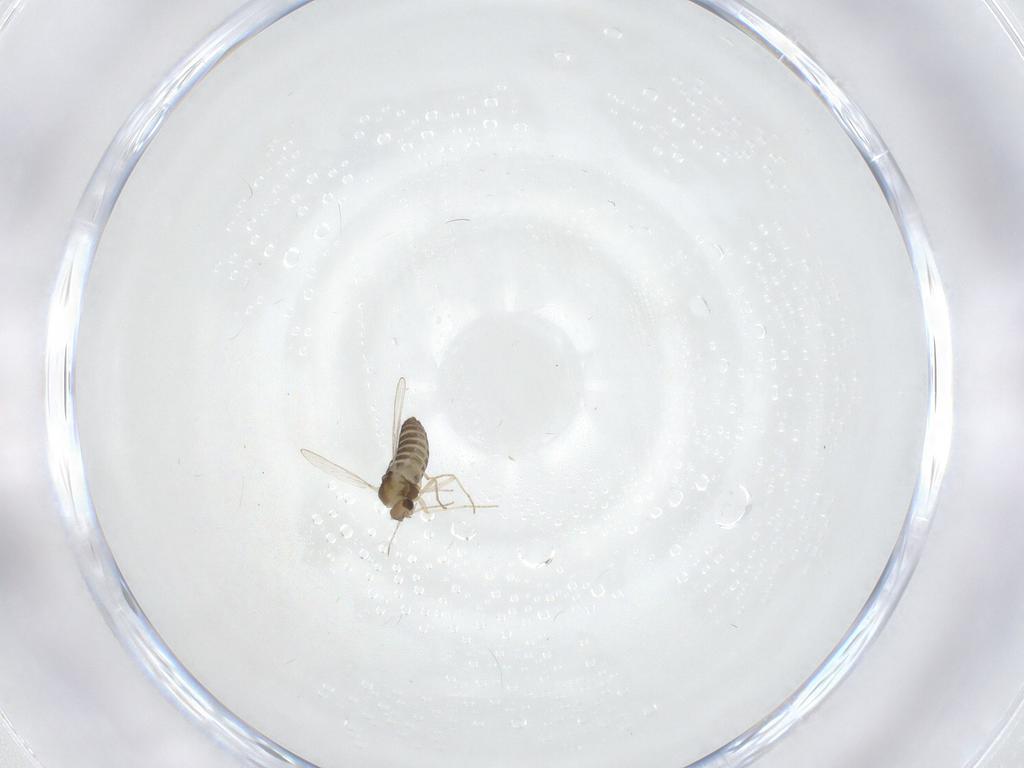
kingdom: Animalia
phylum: Arthropoda
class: Insecta
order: Diptera
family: Chironomidae
